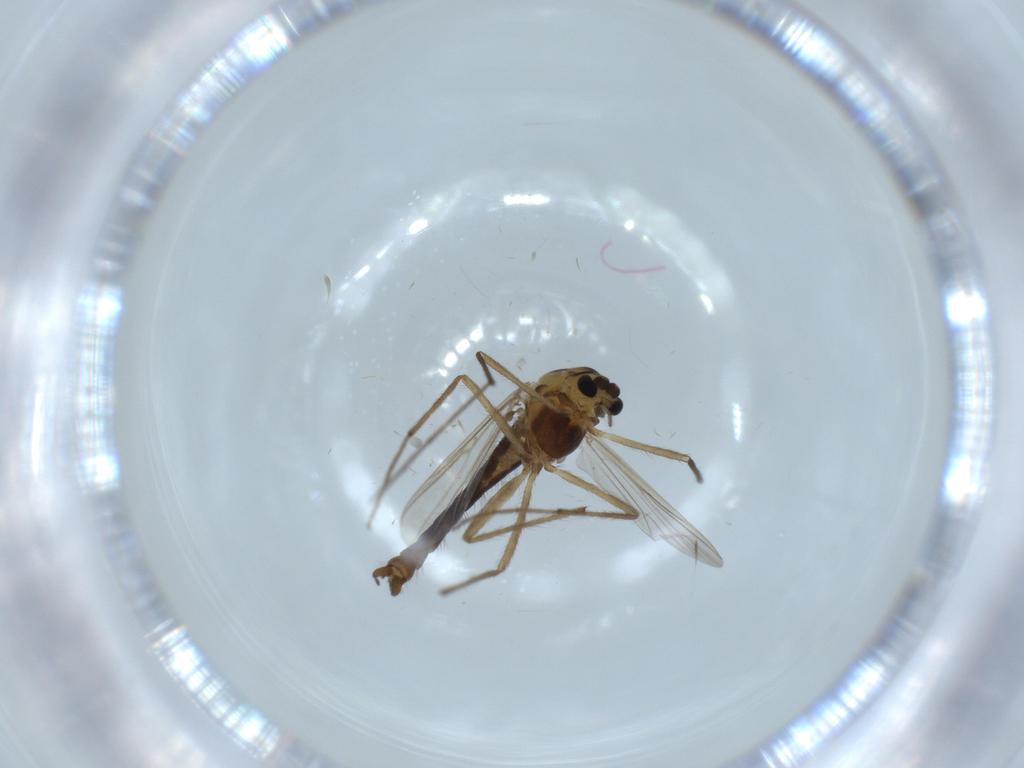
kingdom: Animalia
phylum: Arthropoda
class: Insecta
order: Diptera
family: Chironomidae
